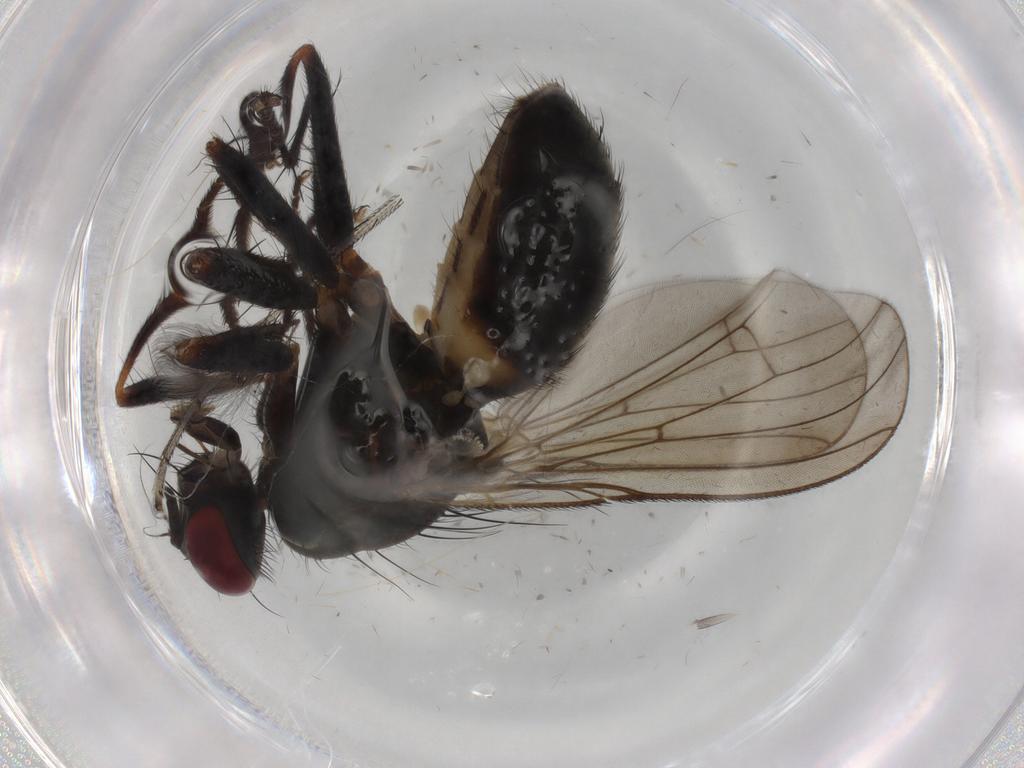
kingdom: Animalia
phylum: Arthropoda
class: Insecta
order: Diptera
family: Muscidae
